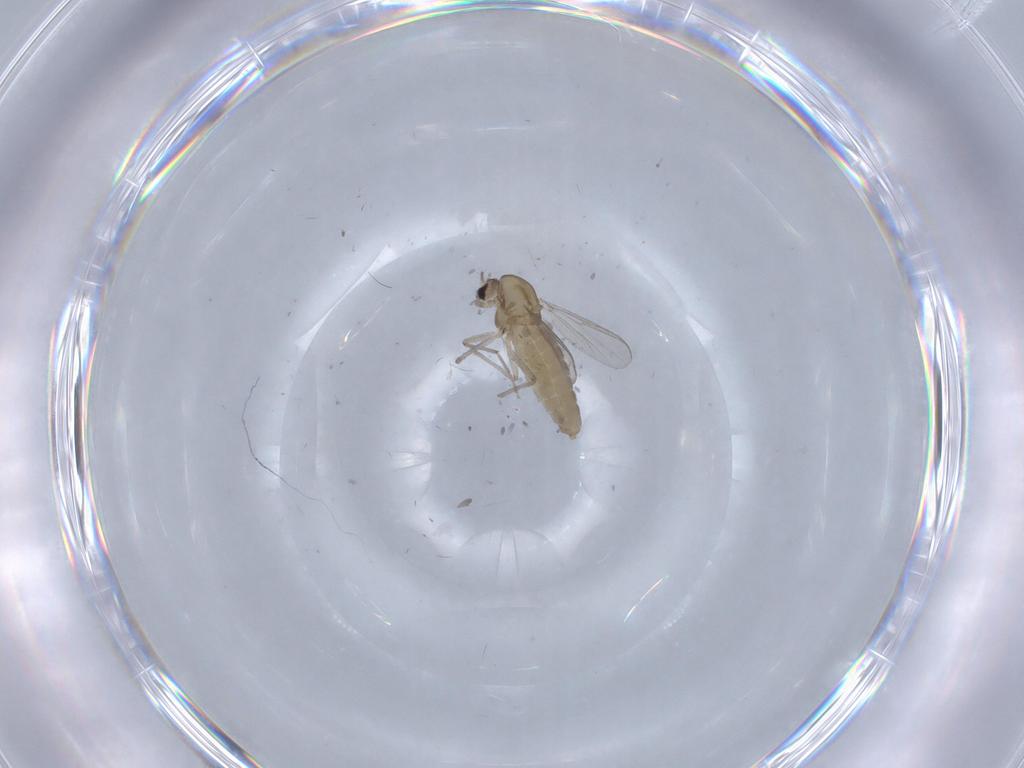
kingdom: Animalia
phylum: Arthropoda
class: Insecta
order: Diptera
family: Chironomidae
